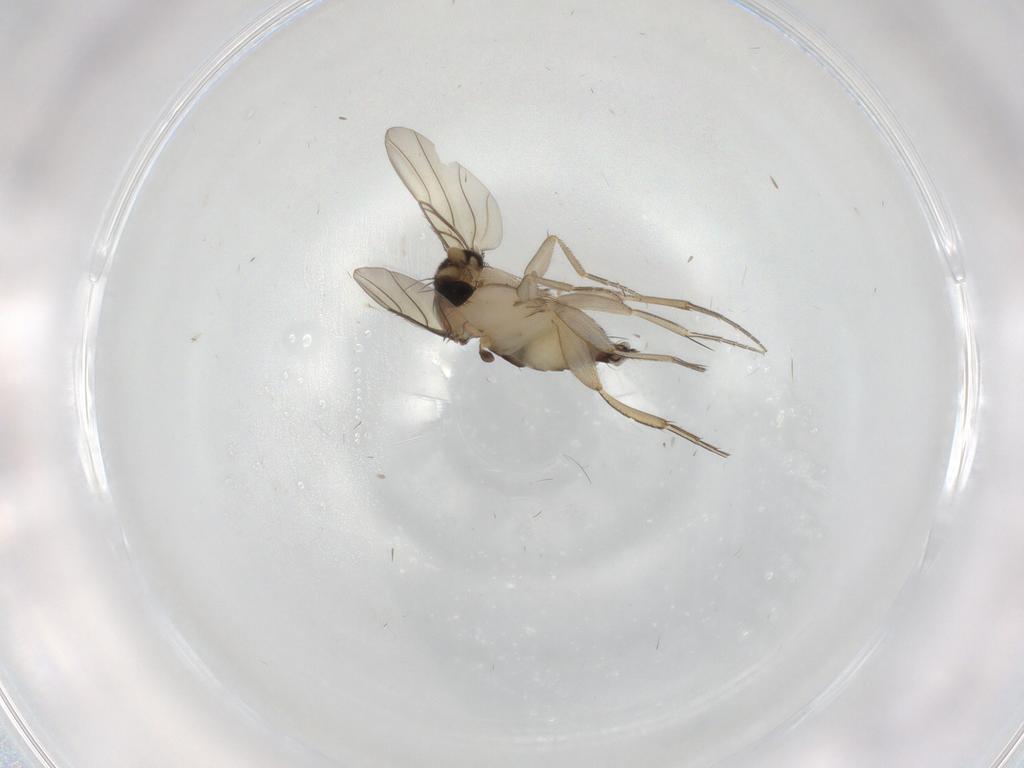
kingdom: Animalia
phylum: Arthropoda
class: Insecta
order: Diptera
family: Phoridae
